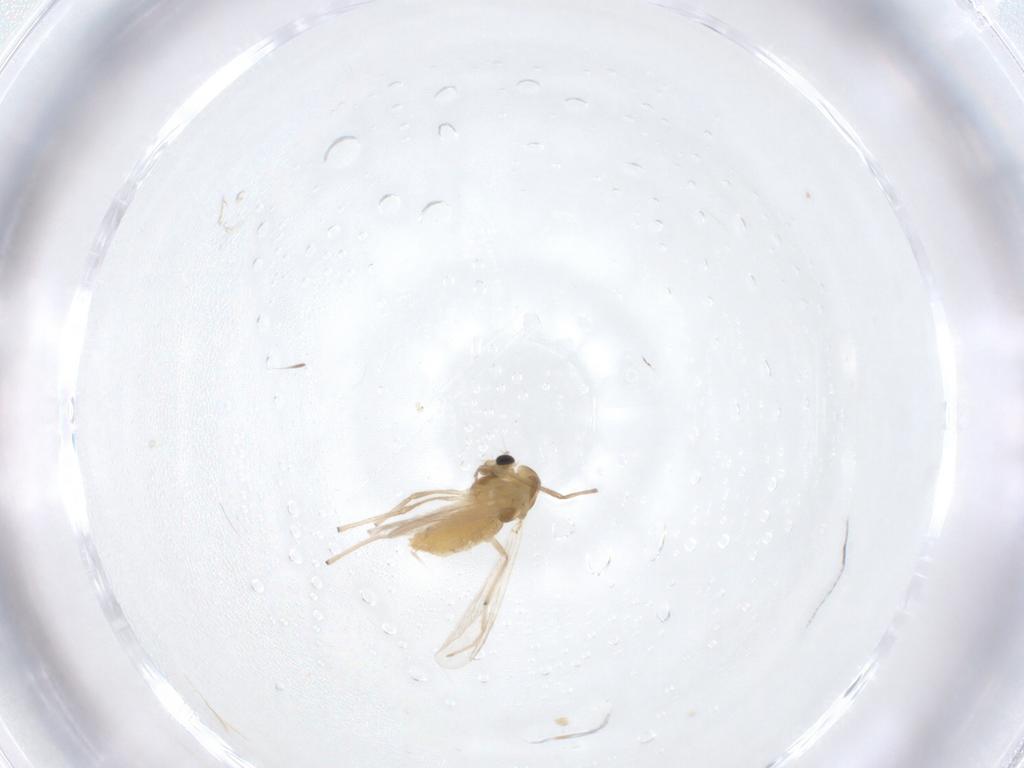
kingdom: Animalia
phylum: Arthropoda
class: Insecta
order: Diptera
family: Chironomidae
